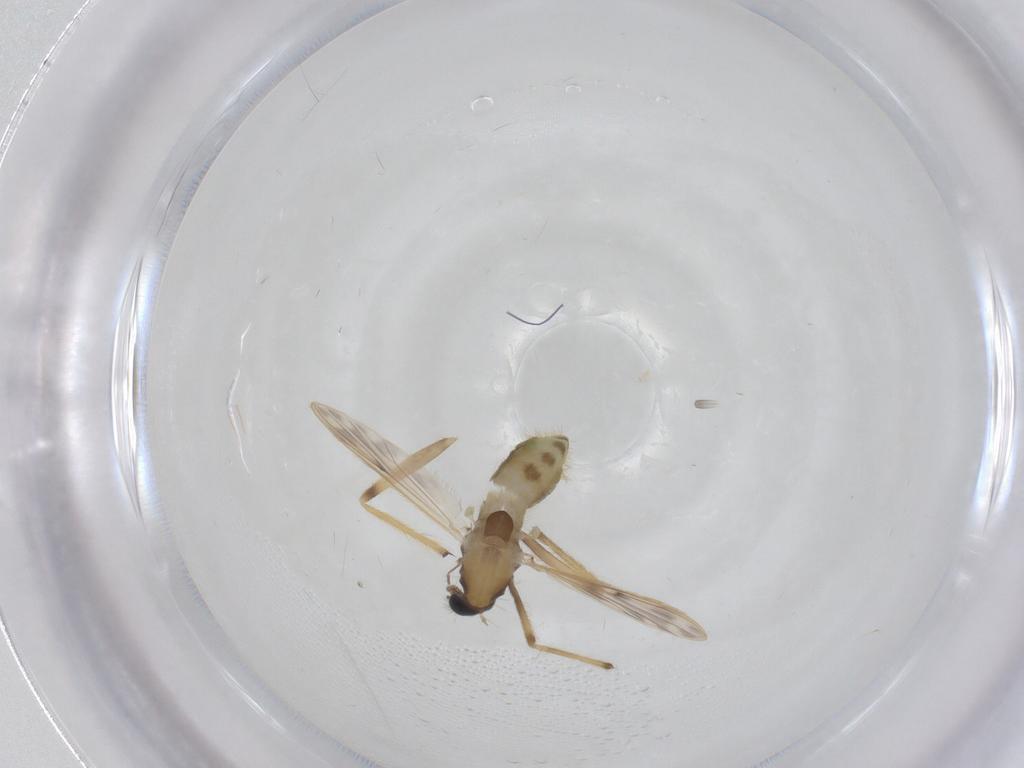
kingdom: Animalia
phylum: Arthropoda
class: Insecta
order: Diptera
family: Chironomidae
